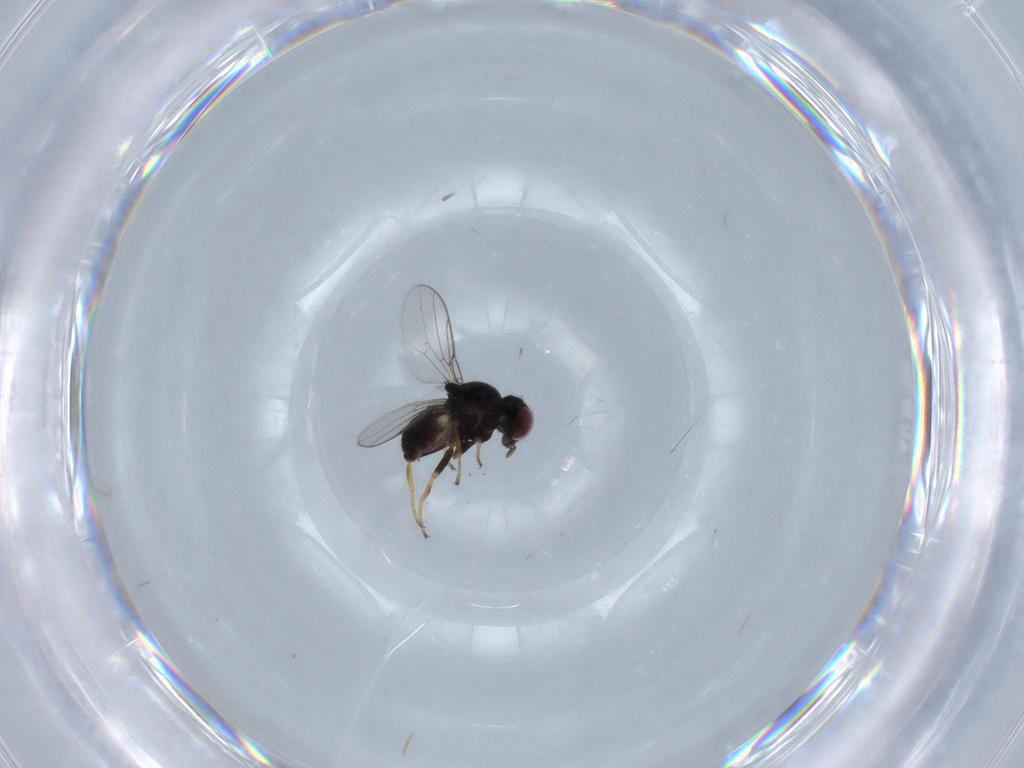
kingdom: Animalia
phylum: Arthropoda
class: Insecta
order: Diptera
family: Chloropidae
